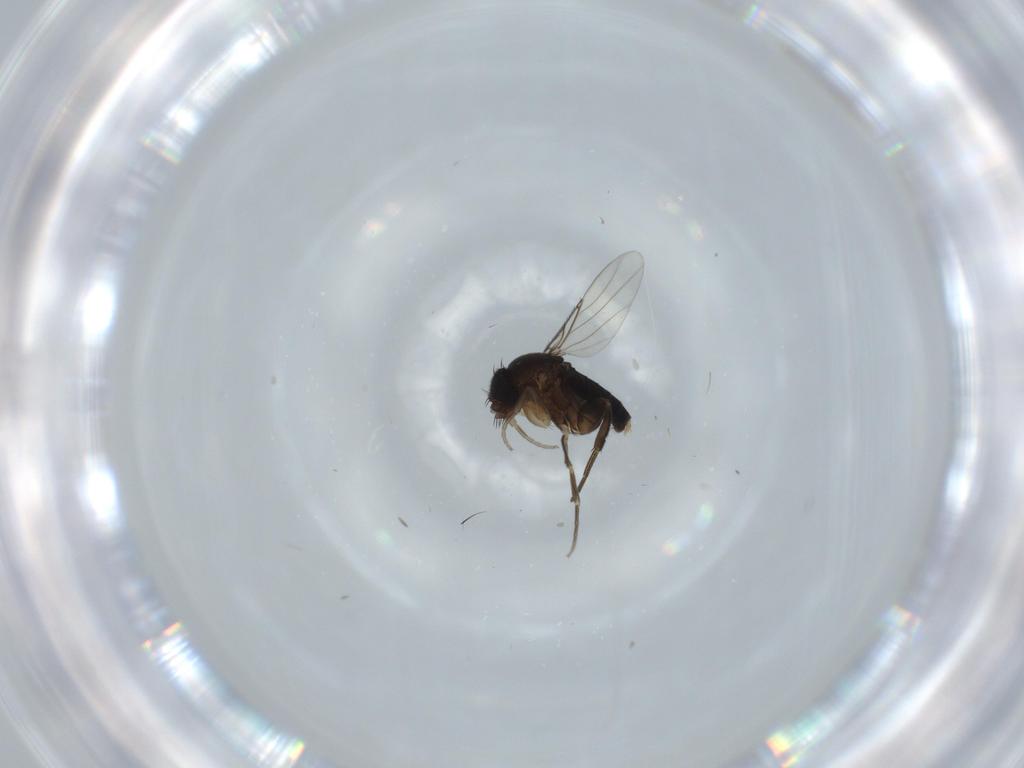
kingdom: Animalia
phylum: Arthropoda
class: Insecta
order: Diptera
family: Phoridae
